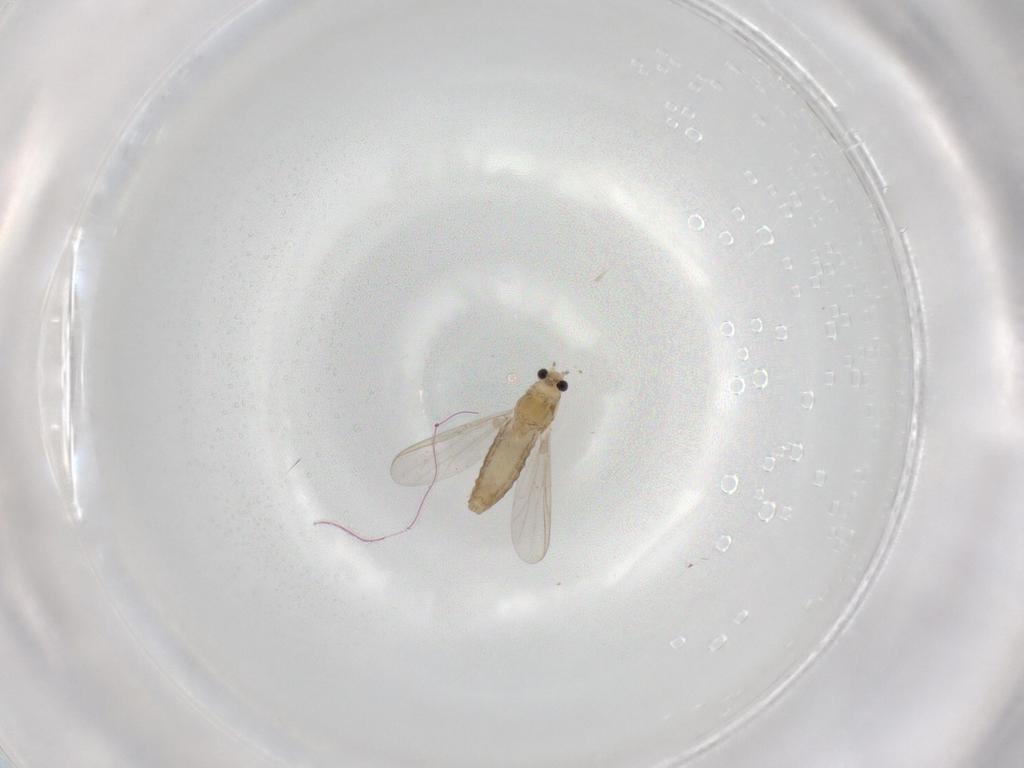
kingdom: Animalia
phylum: Arthropoda
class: Insecta
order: Diptera
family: Chironomidae
